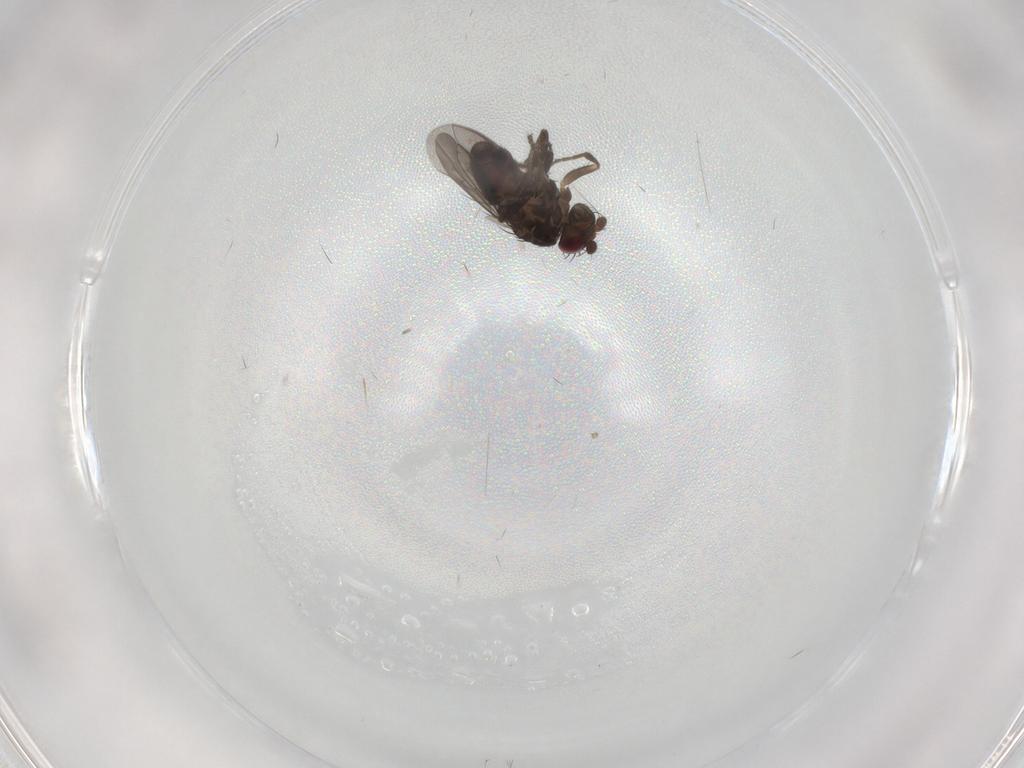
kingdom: Animalia
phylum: Arthropoda
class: Insecta
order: Diptera
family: Sphaeroceridae
